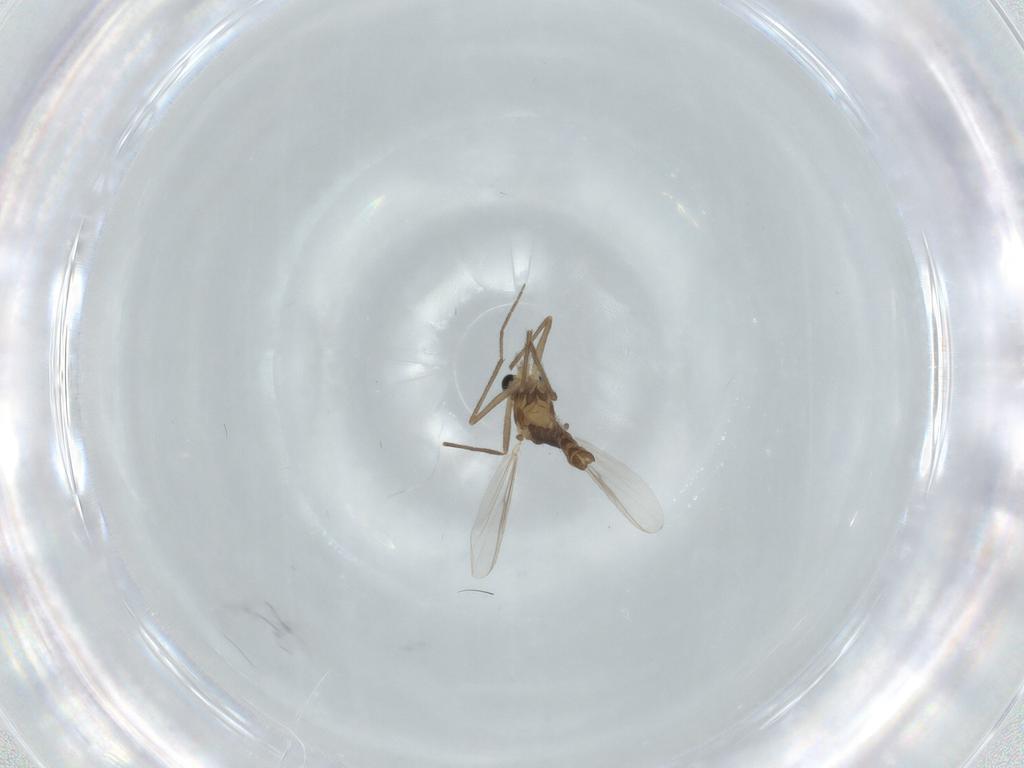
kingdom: Animalia
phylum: Arthropoda
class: Insecta
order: Diptera
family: Chironomidae
